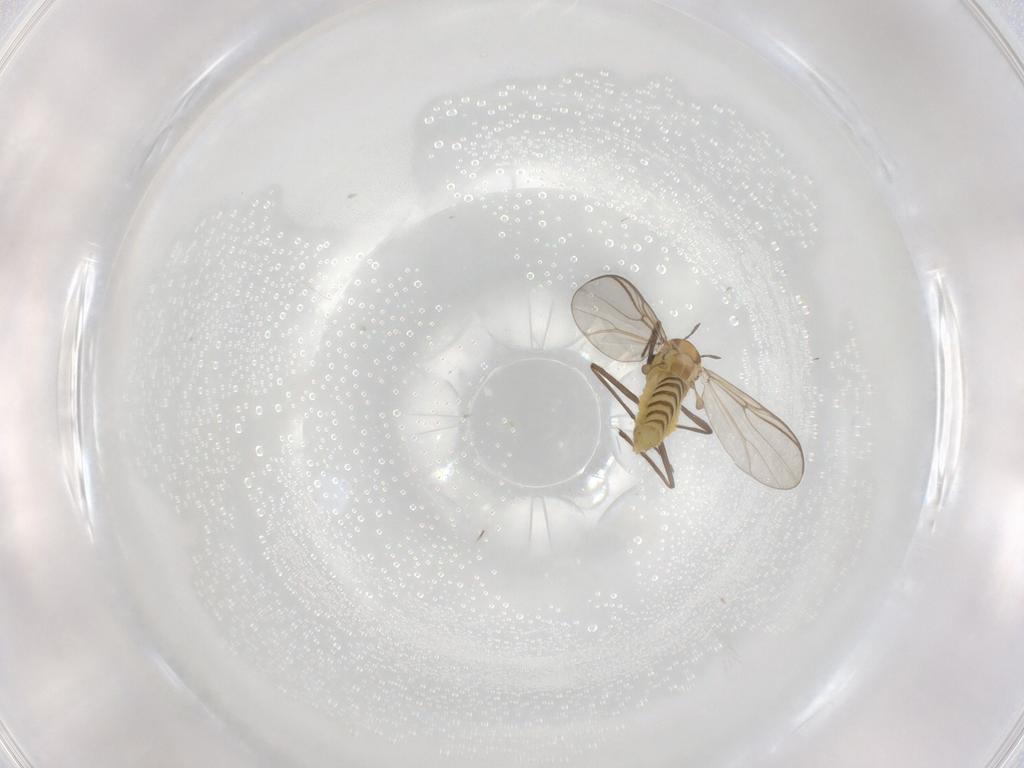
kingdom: Animalia
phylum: Arthropoda
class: Insecta
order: Diptera
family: Chironomidae
